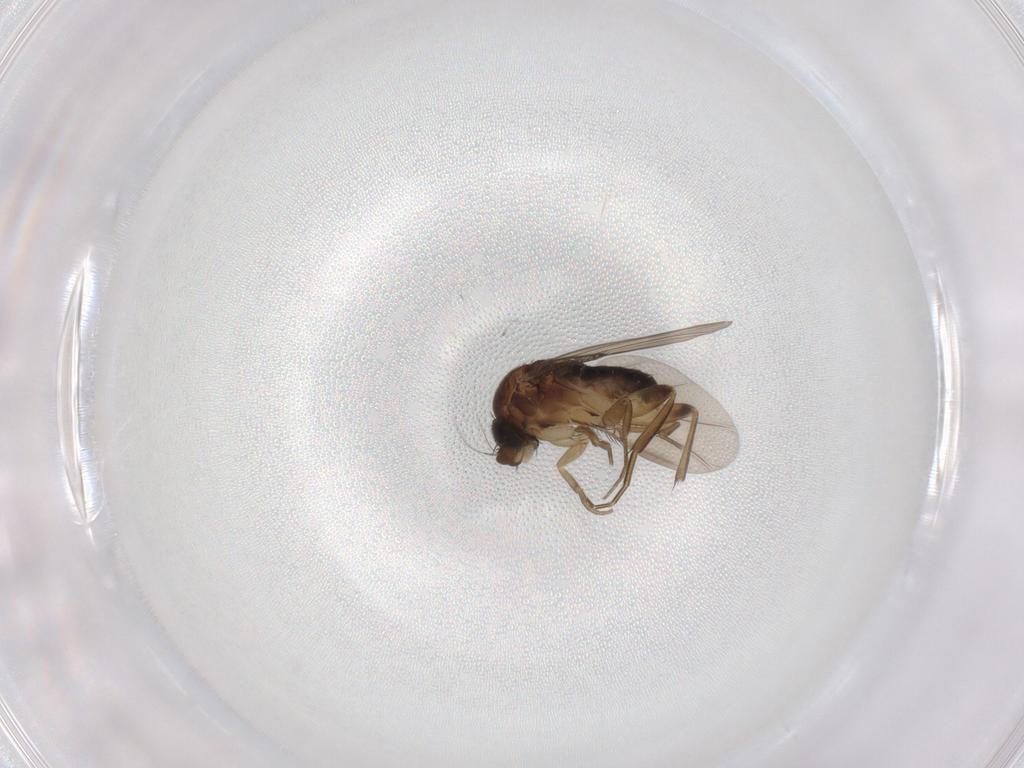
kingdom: Animalia
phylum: Arthropoda
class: Insecta
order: Diptera
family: Phoridae
